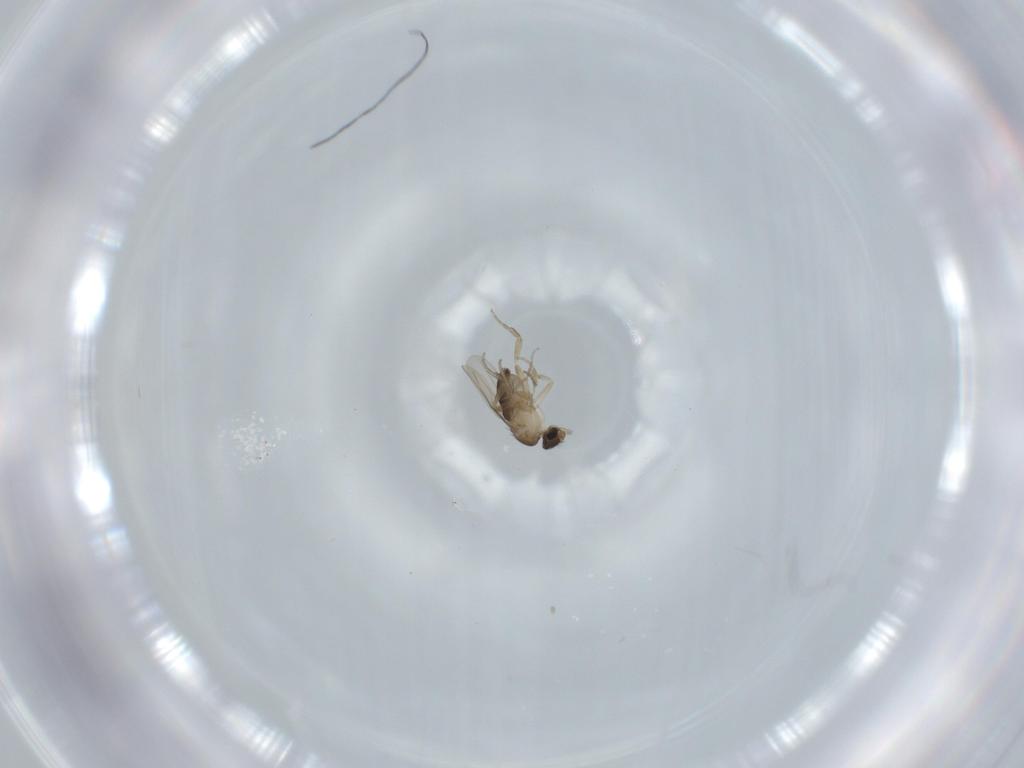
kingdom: Animalia
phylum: Arthropoda
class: Insecta
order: Diptera
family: Phoridae
